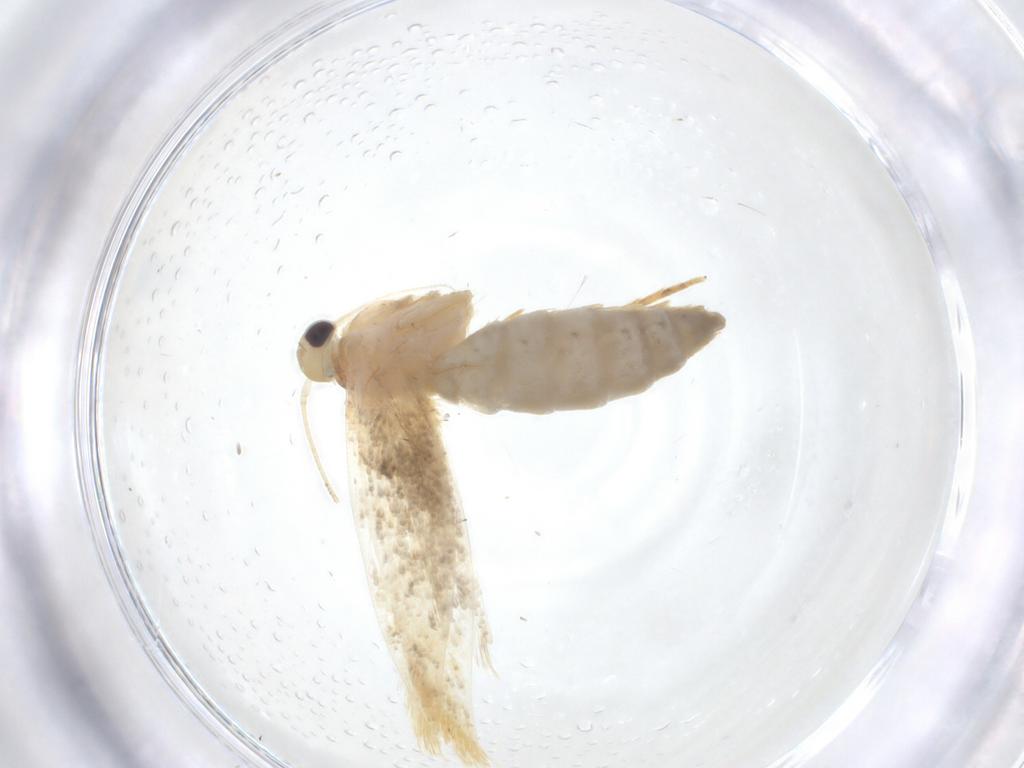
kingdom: Animalia
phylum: Arthropoda
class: Insecta
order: Lepidoptera
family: Erebidae
